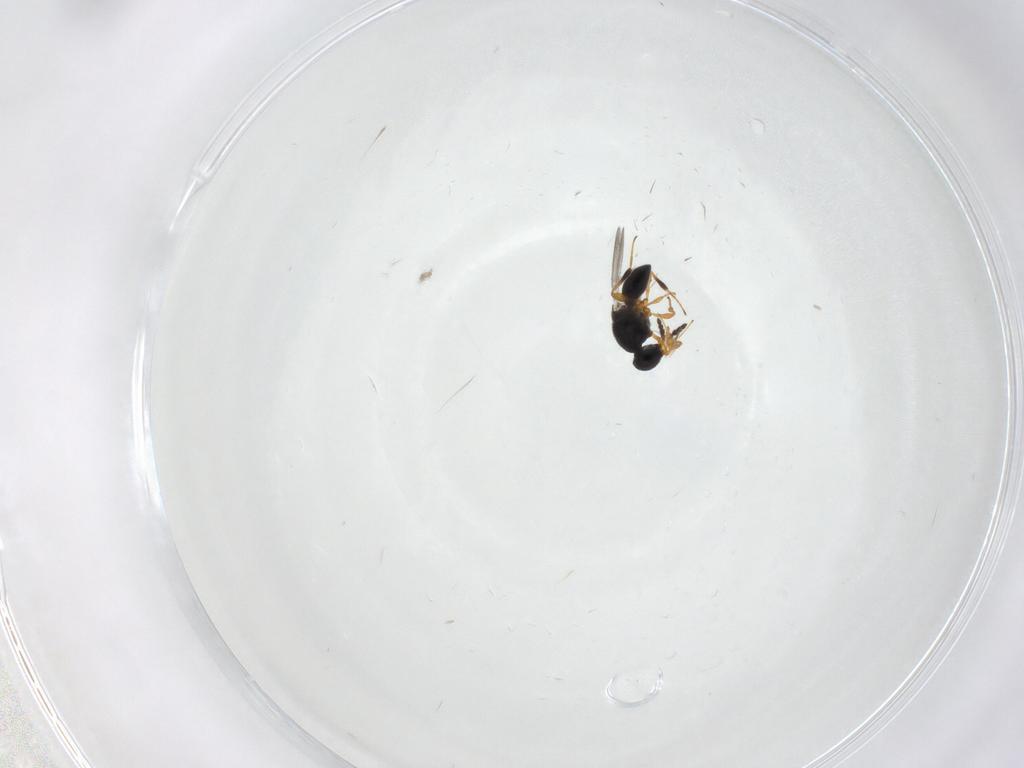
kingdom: Animalia
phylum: Arthropoda
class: Insecta
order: Hymenoptera
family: Platygastridae
